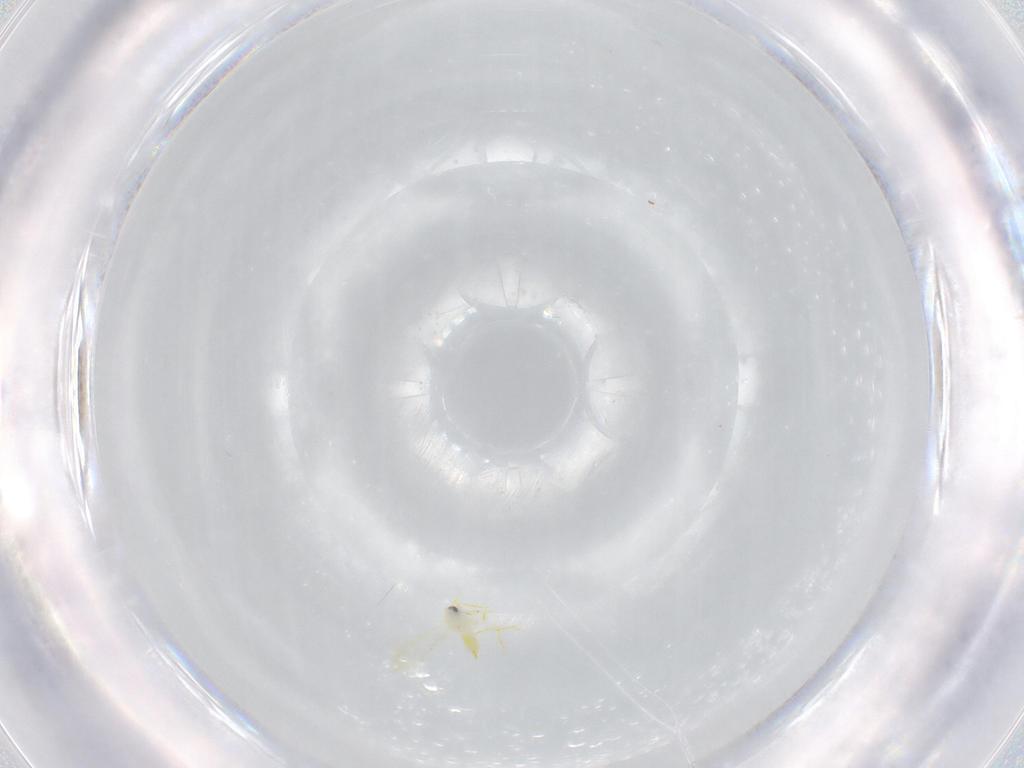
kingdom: Animalia
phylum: Arthropoda
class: Insecta
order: Hemiptera
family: Aleyrodidae
